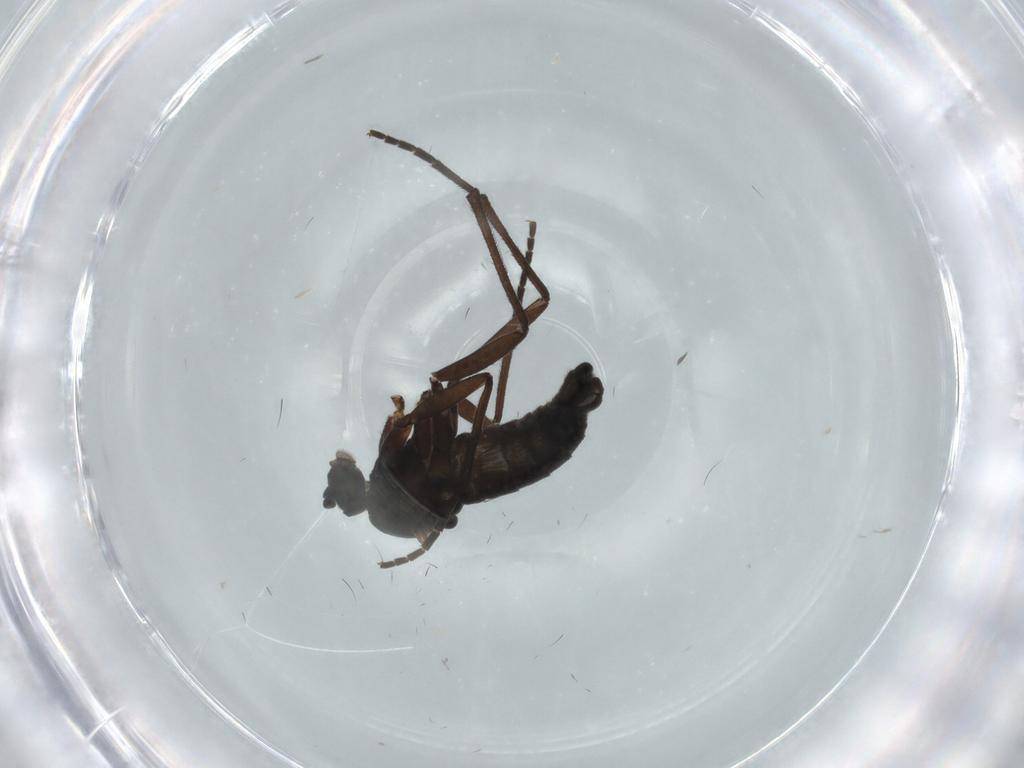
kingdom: Animalia
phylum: Arthropoda
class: Insecta
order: Diptera
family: Sciaridae
